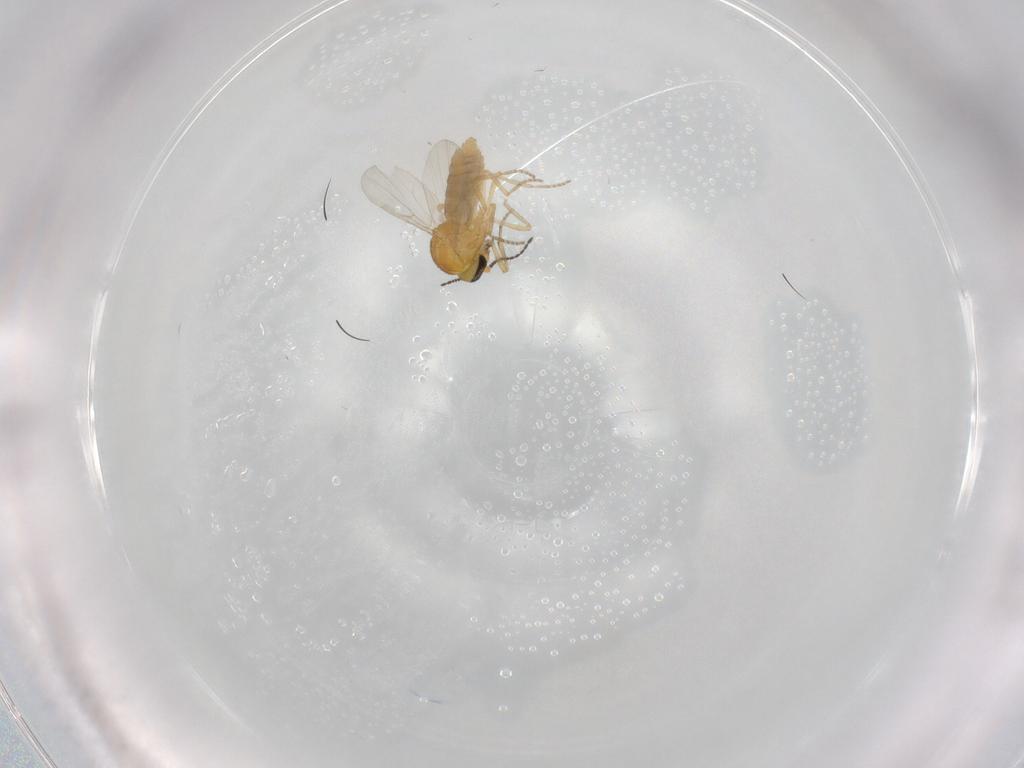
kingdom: Animalia
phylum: Arthropoda
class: Insecta
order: Diptera
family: Ceratopogonidae
